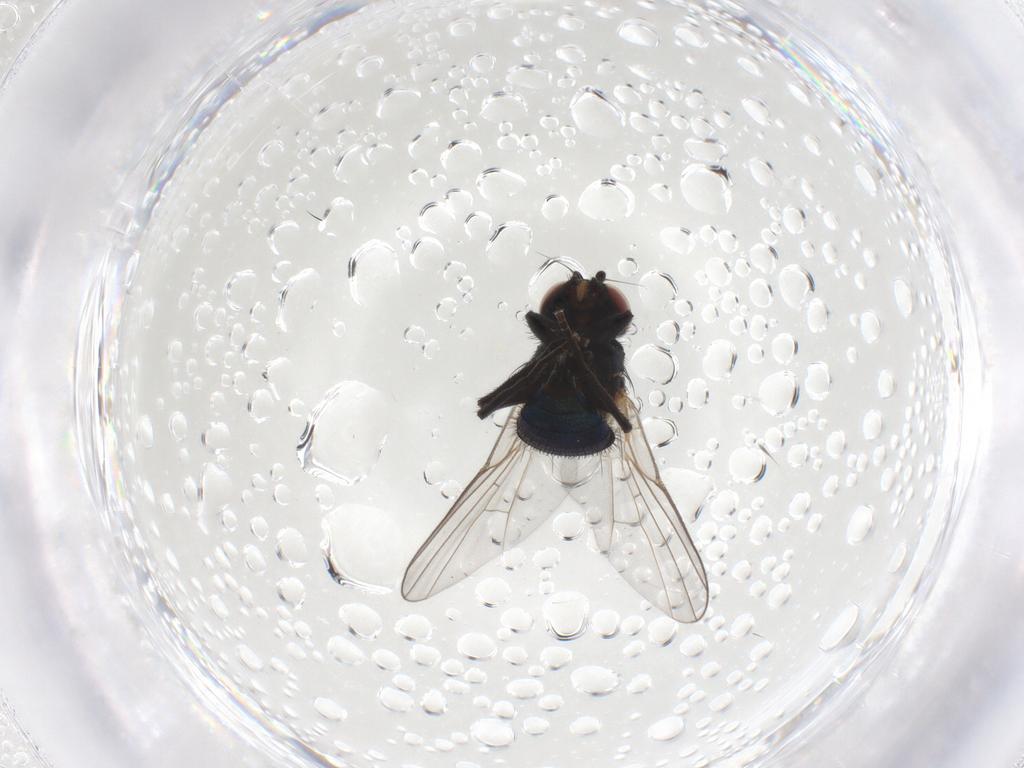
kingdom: Animalia
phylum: Arthropoda
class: Insecta
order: Diptera
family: Agromyzidae
